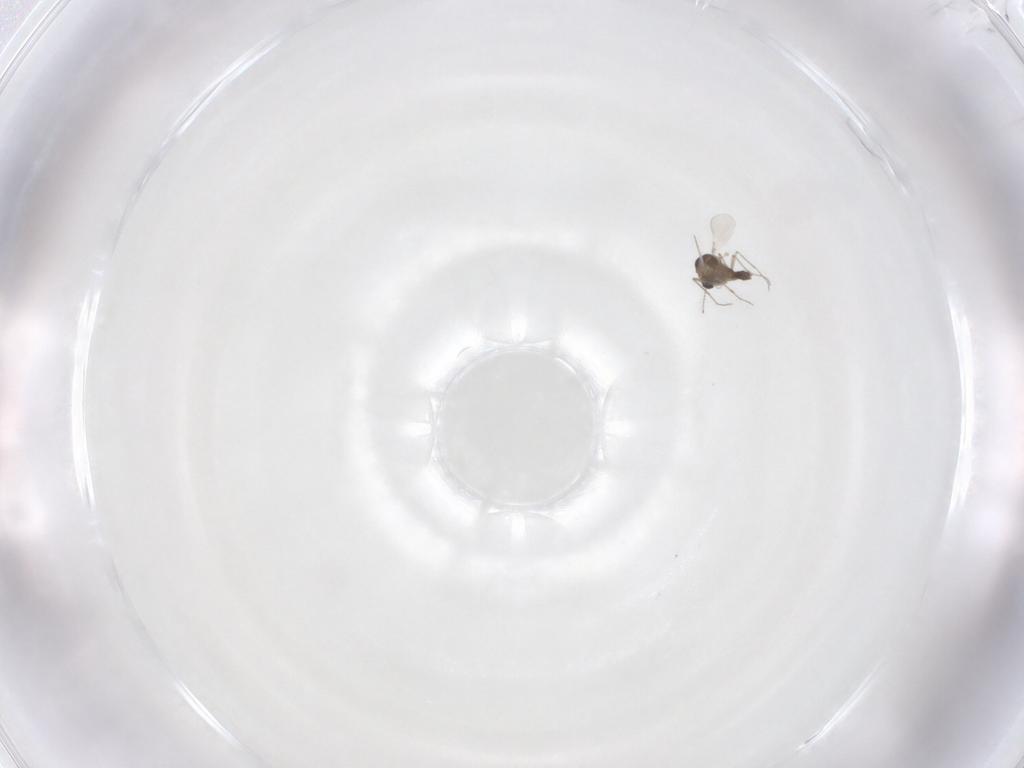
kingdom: Animalia
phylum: Arthropoda
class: Insecta
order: Diptera
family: Chironomidae
